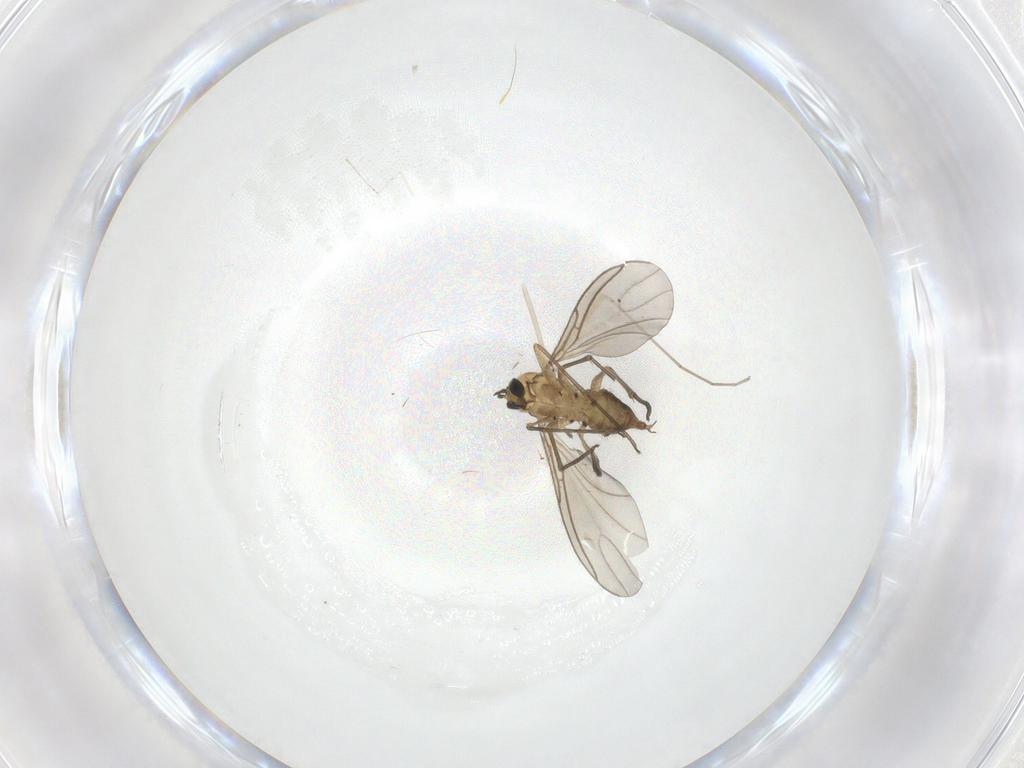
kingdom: Animalia
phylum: Arthropoda
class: Insecta
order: Diptera
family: Sciaridae
